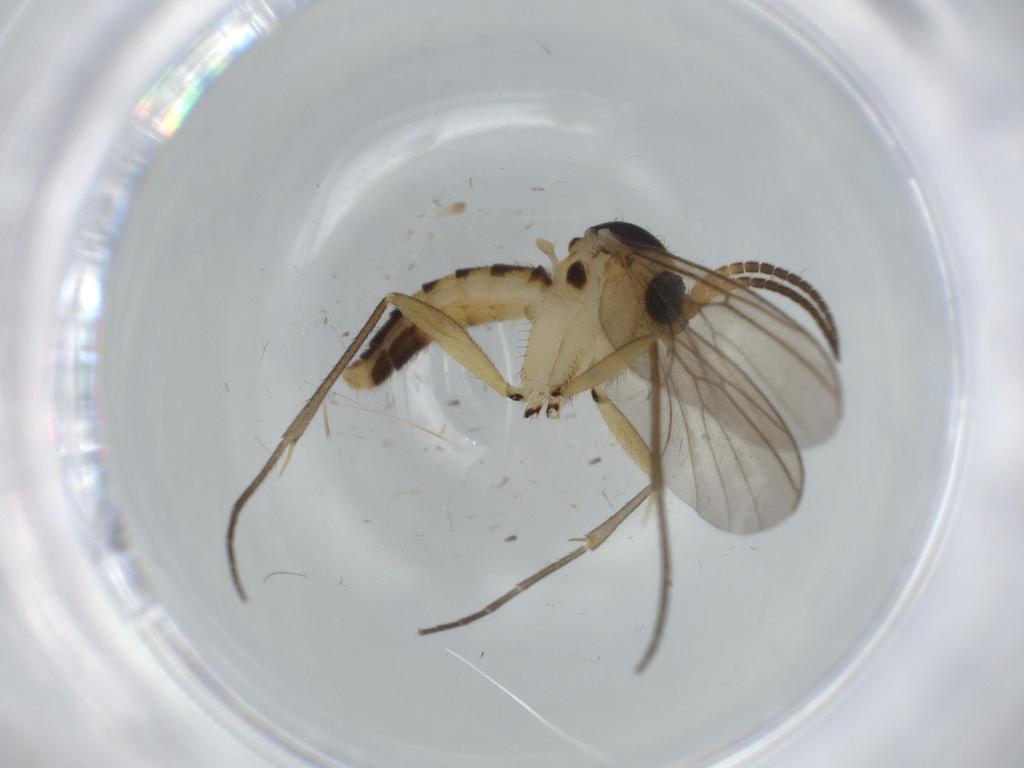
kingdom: Animalia
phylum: Arthropoda
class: Insecta
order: Diptera
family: Mycetophilidae
